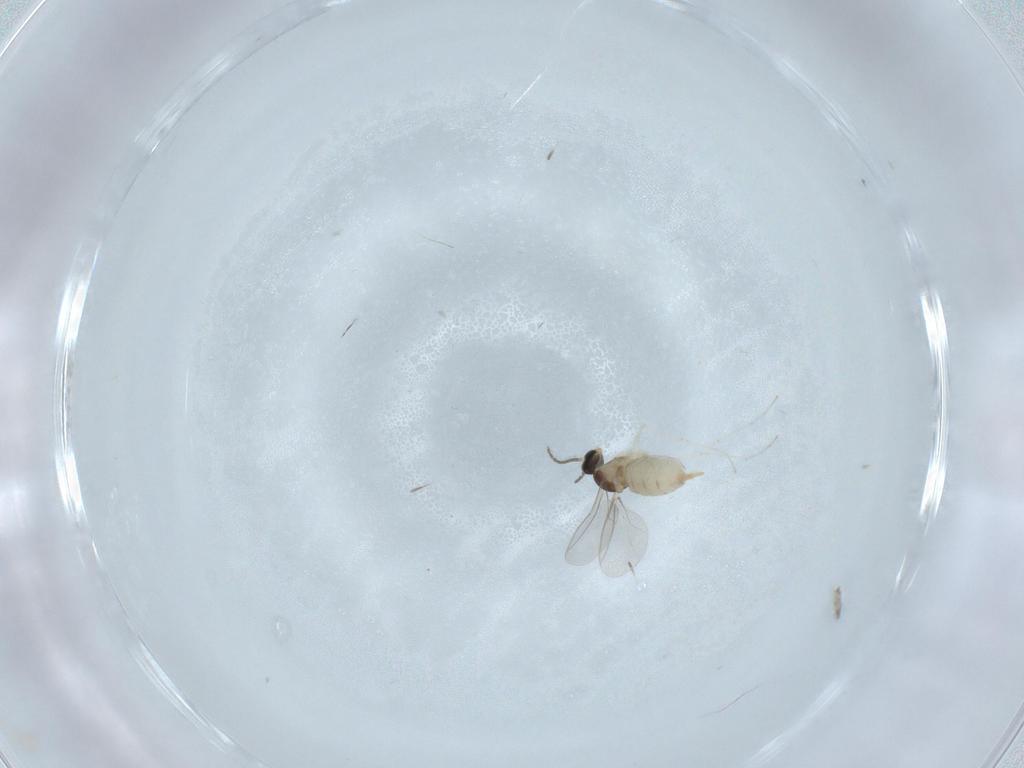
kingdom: Animalia
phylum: Arthropoda
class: Insecta
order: Diptera
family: Cecidomyiidae
